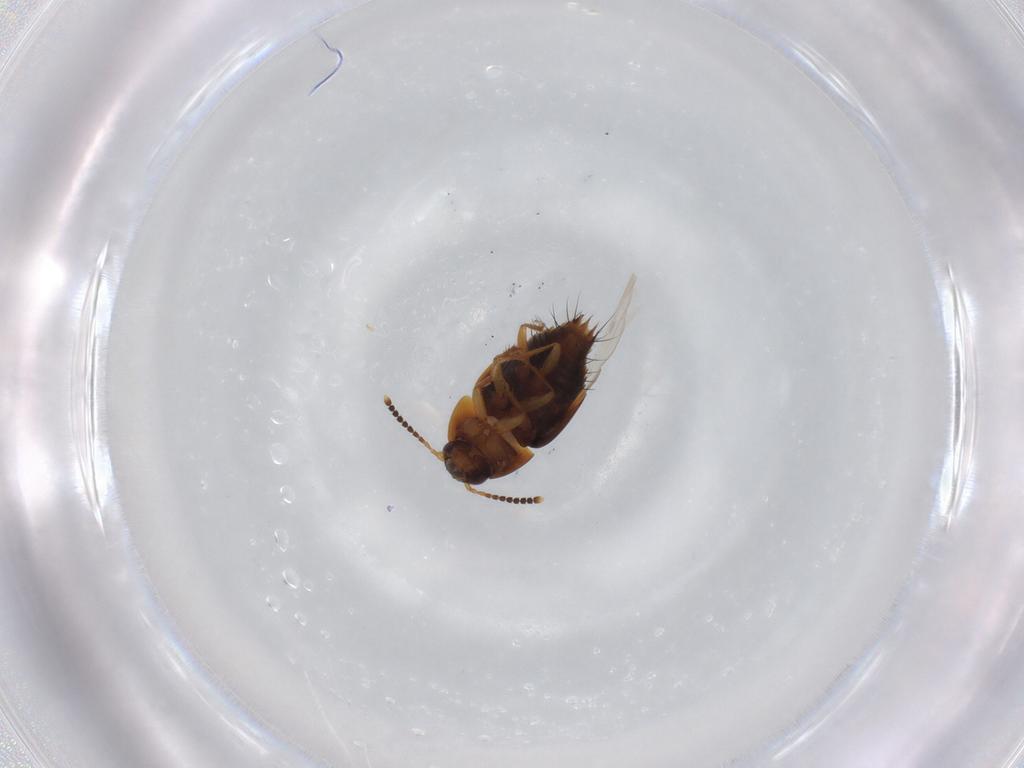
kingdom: Animalia
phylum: Arthropoda
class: Insecta
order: Coleoptera
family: Staphylinidae
